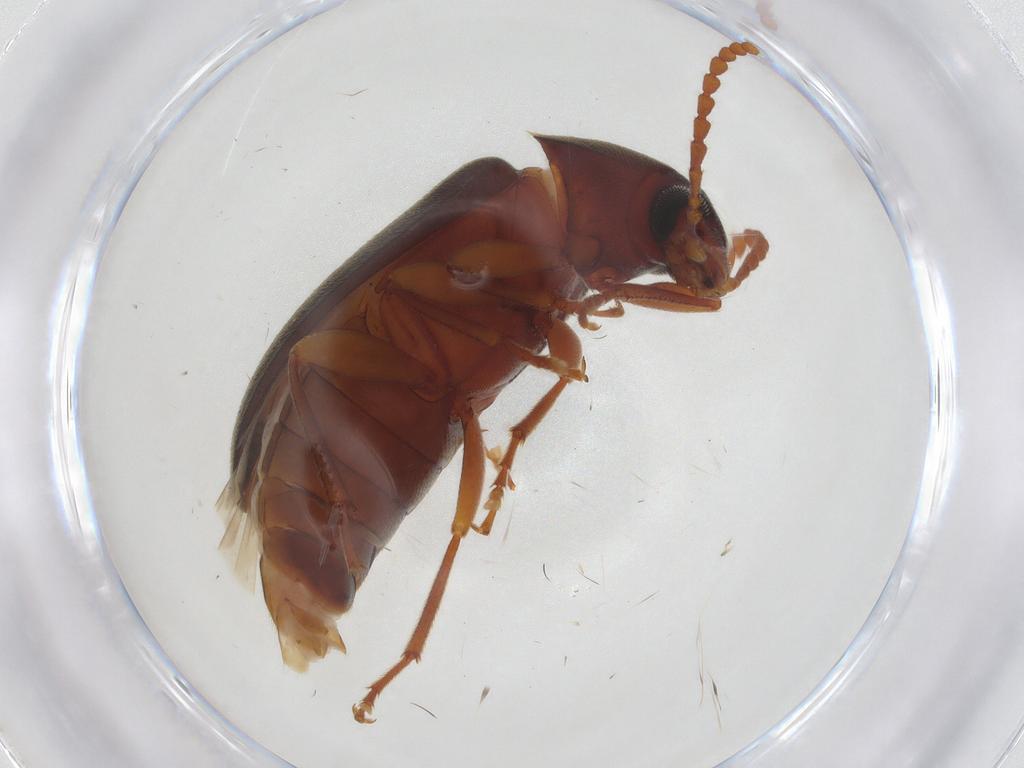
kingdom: Animalia
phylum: Arthropoda
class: Insecta
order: Coleoptera
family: Tenebrionidae
